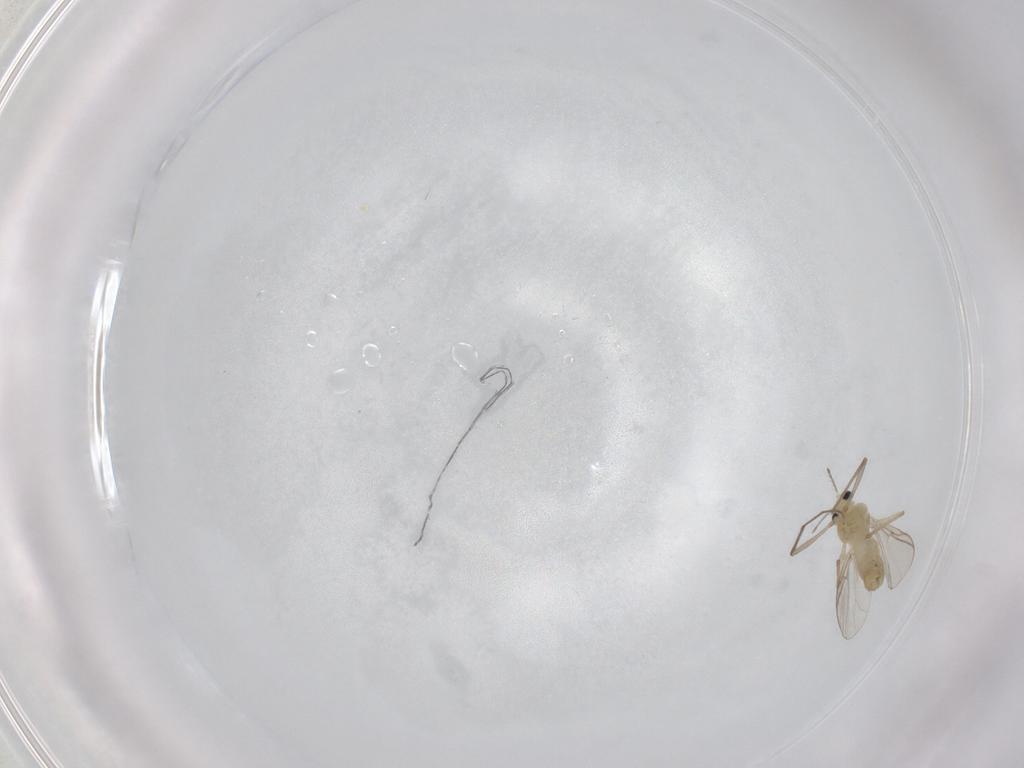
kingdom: Animalia
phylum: Arthropoda
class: Insecta
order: Diptera
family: Chironomidae
